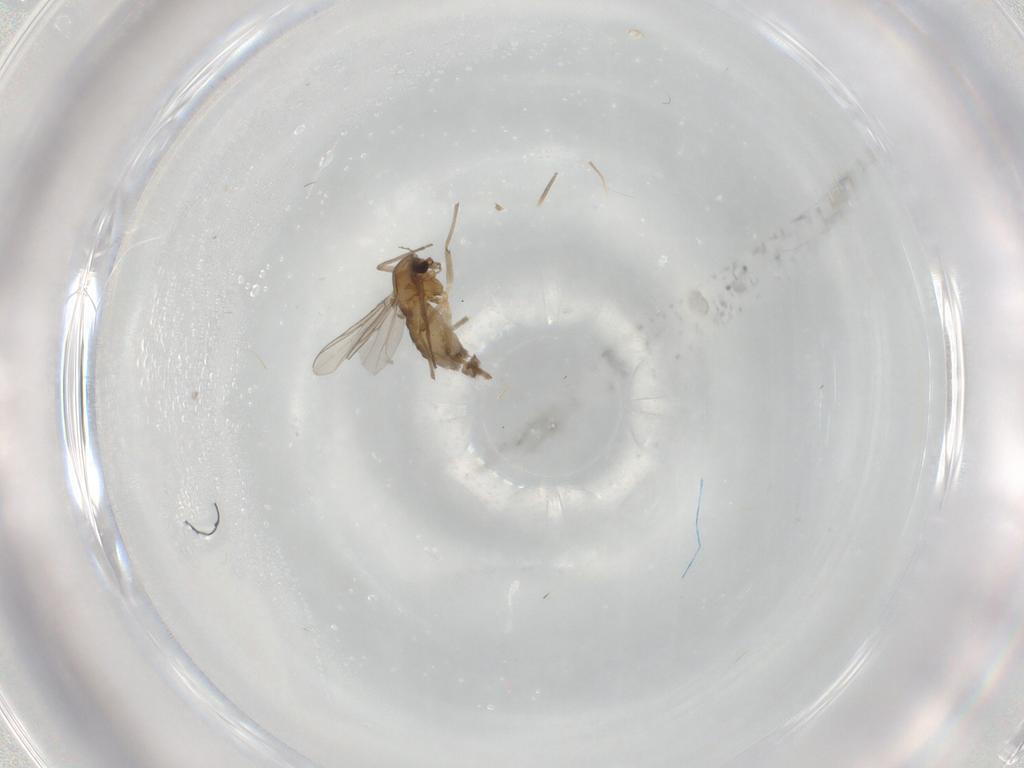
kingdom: Animalia
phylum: Arthropoda
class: Insecta
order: Diptera
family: Chironomidae
